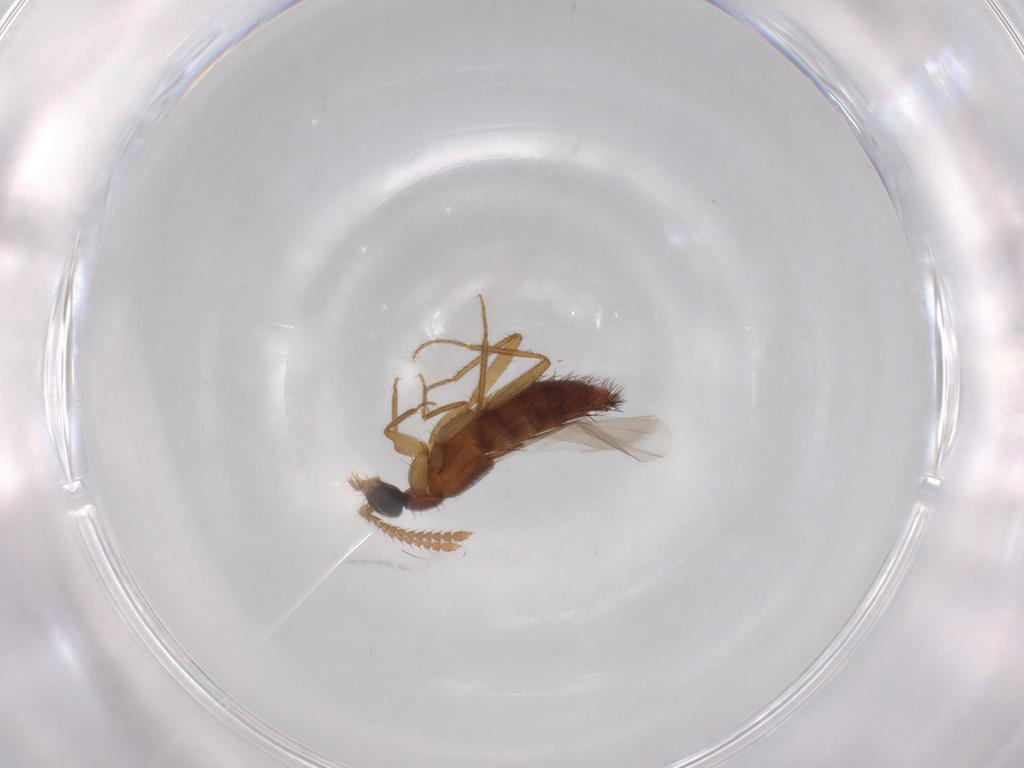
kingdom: Animalia
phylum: Arthropoda
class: Insecta
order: Coleoptera
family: Staphylinidae
